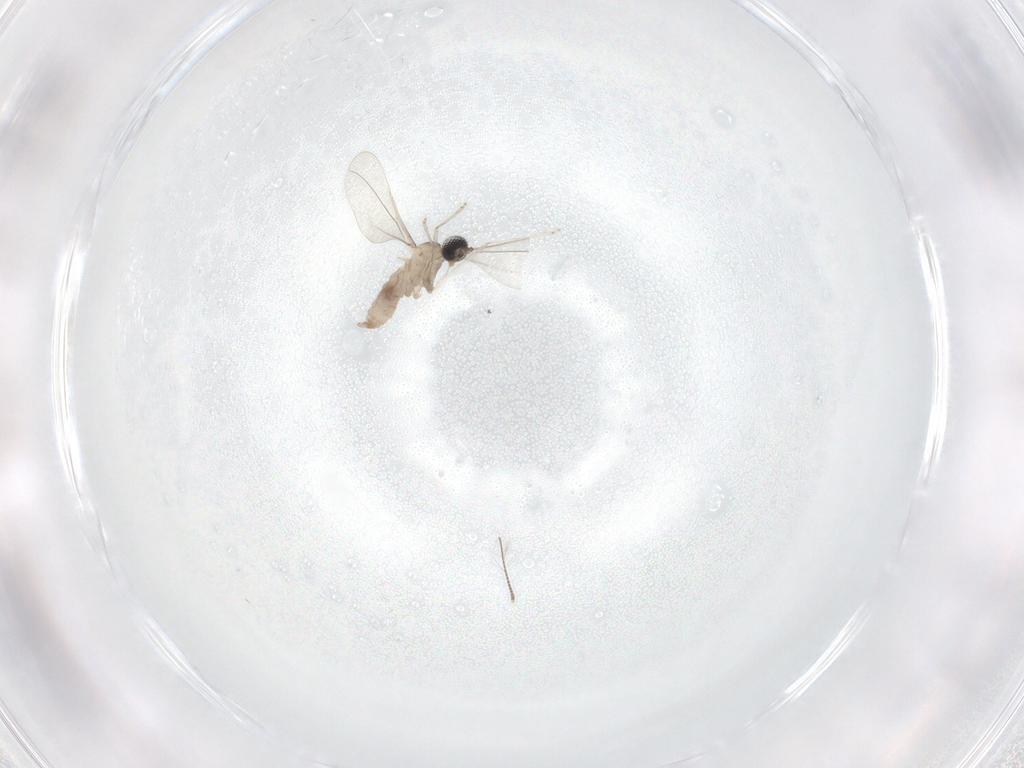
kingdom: Animalia
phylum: Arthropoda
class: Insecta
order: Diptera
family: Cecidomyiidae
